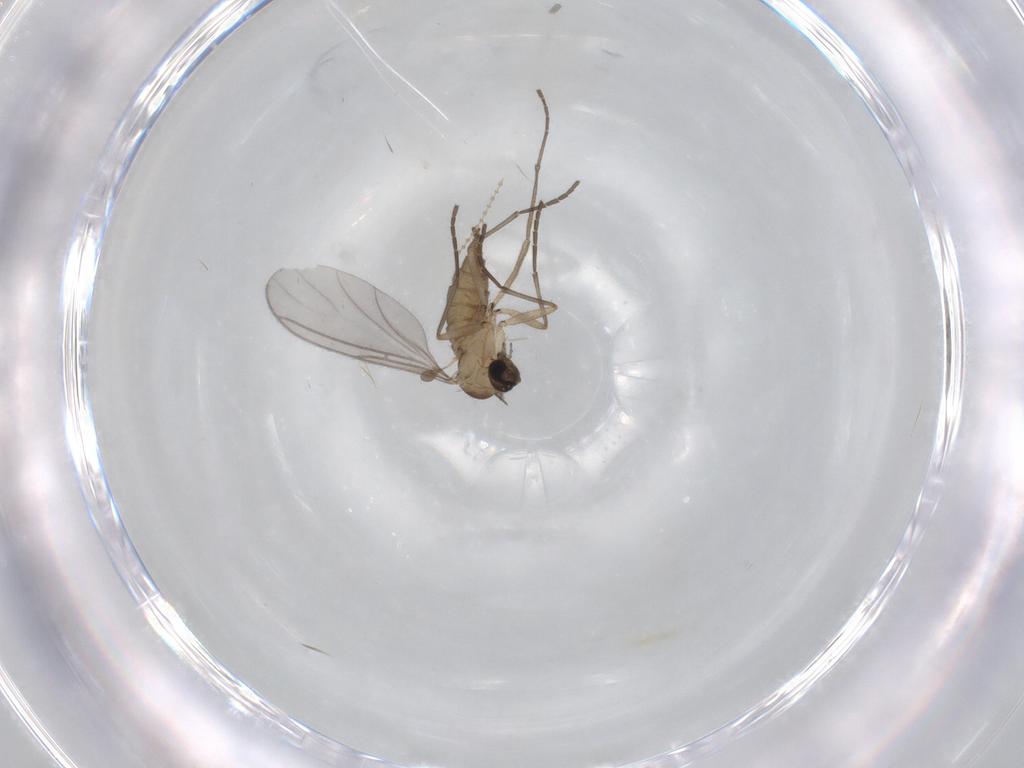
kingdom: Animalia
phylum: Arthropoda
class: Insecta
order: Diptera
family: Sciaridae
